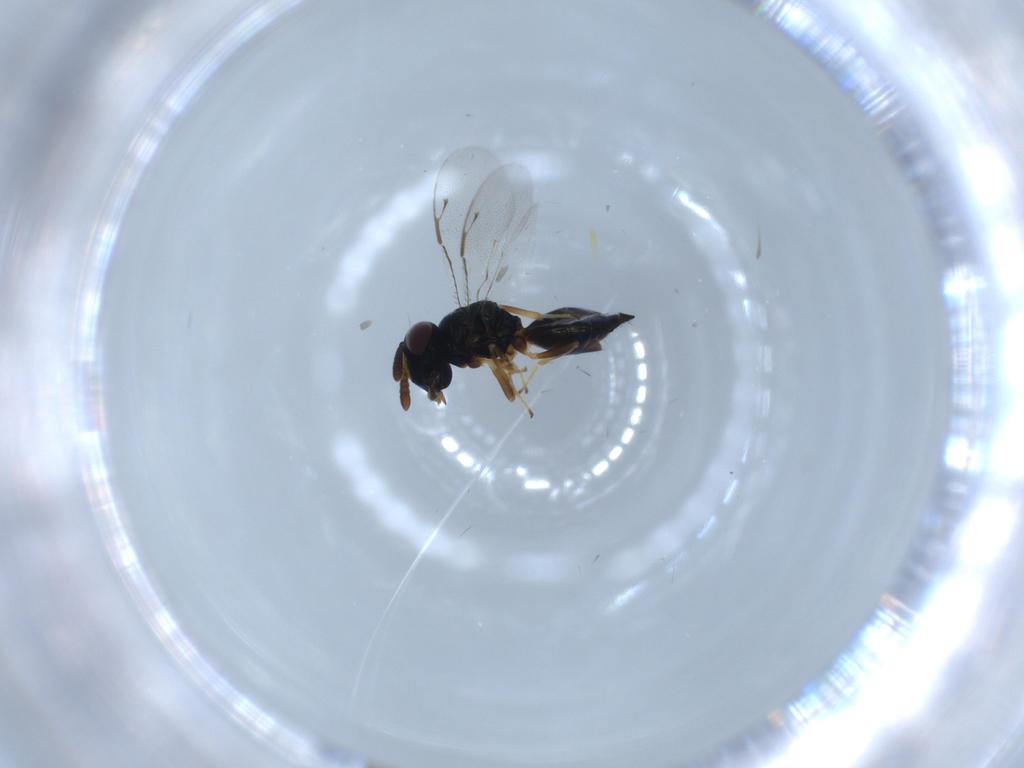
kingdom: Animalia
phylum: Arthropoda
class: Insecta
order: Hymenoptera
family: Pteromalidae
